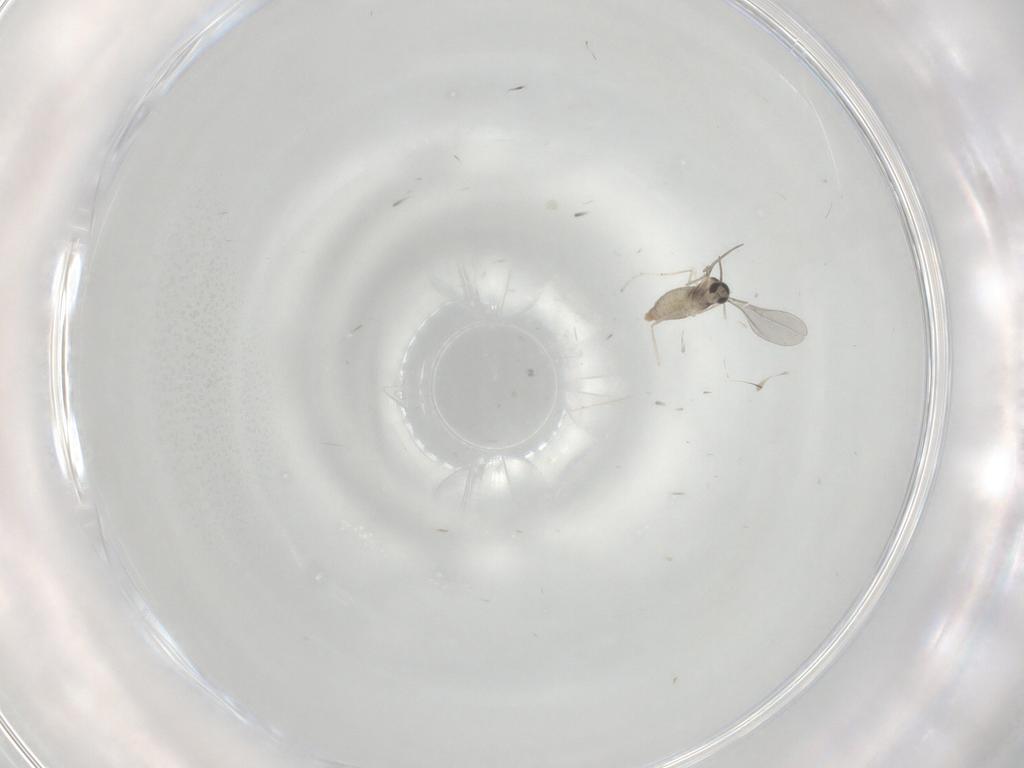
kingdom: Animalia
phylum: Arthropoda
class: Insecta
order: Diptera
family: Cecidomyiidae
